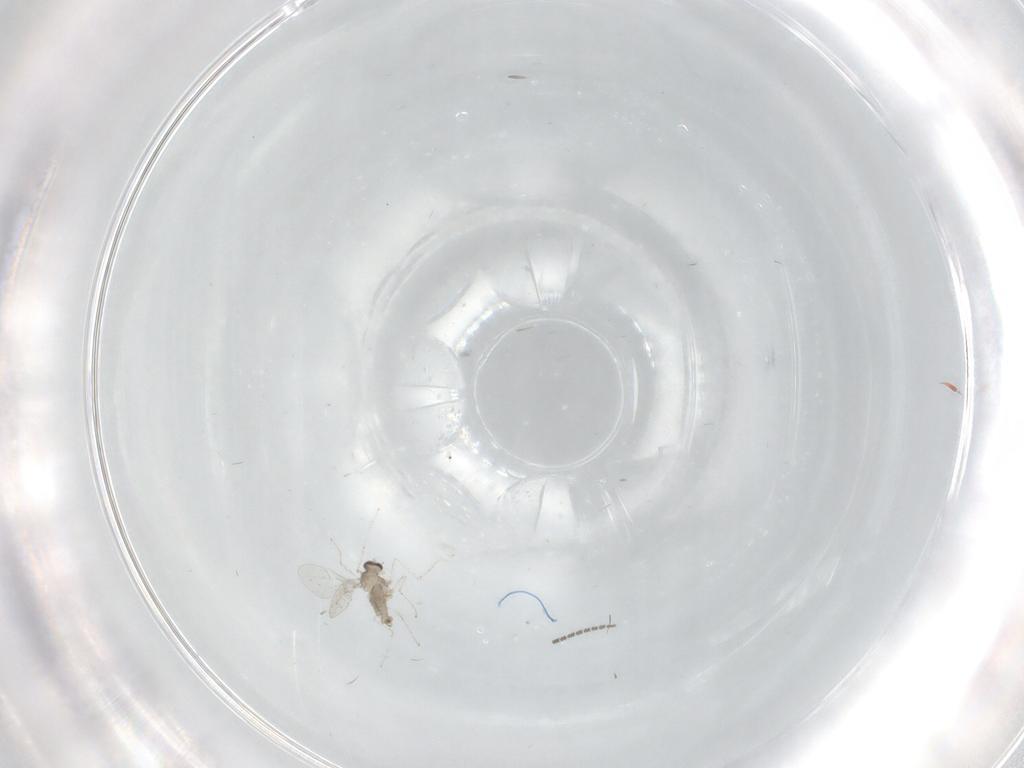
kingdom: Animalia
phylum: Arthropoda
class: Insecta
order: Diptera
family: Sciaridae
